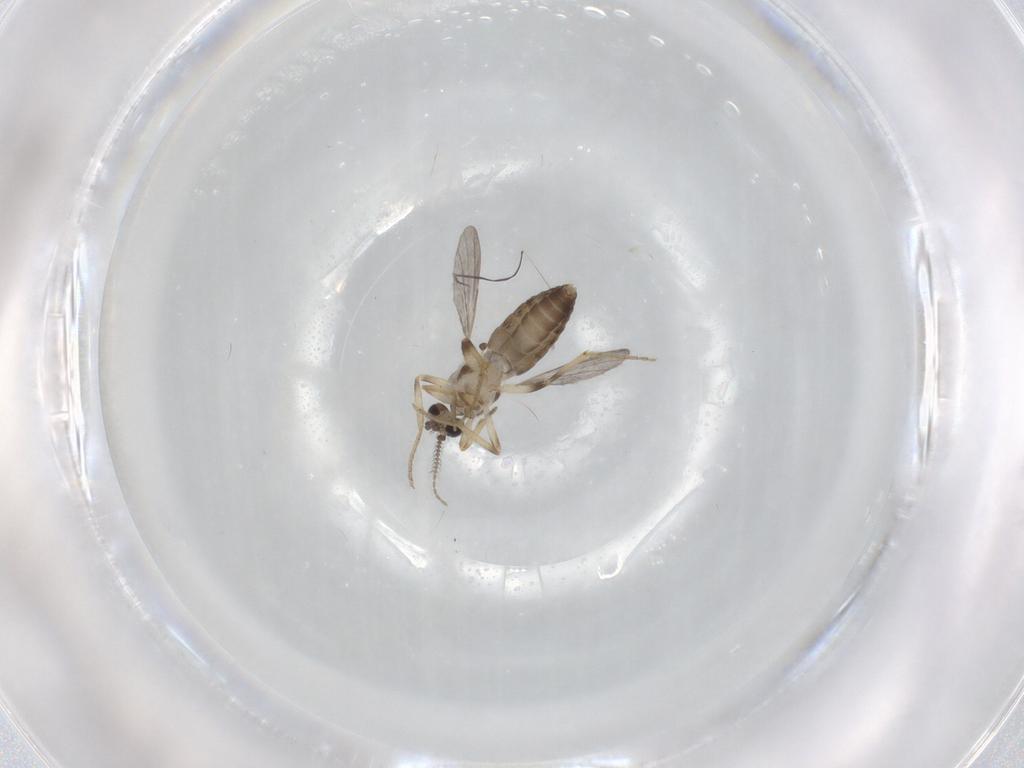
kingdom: Animalia
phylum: Arthropoda
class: Insecta
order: Diptera
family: Ceratopogonidae
